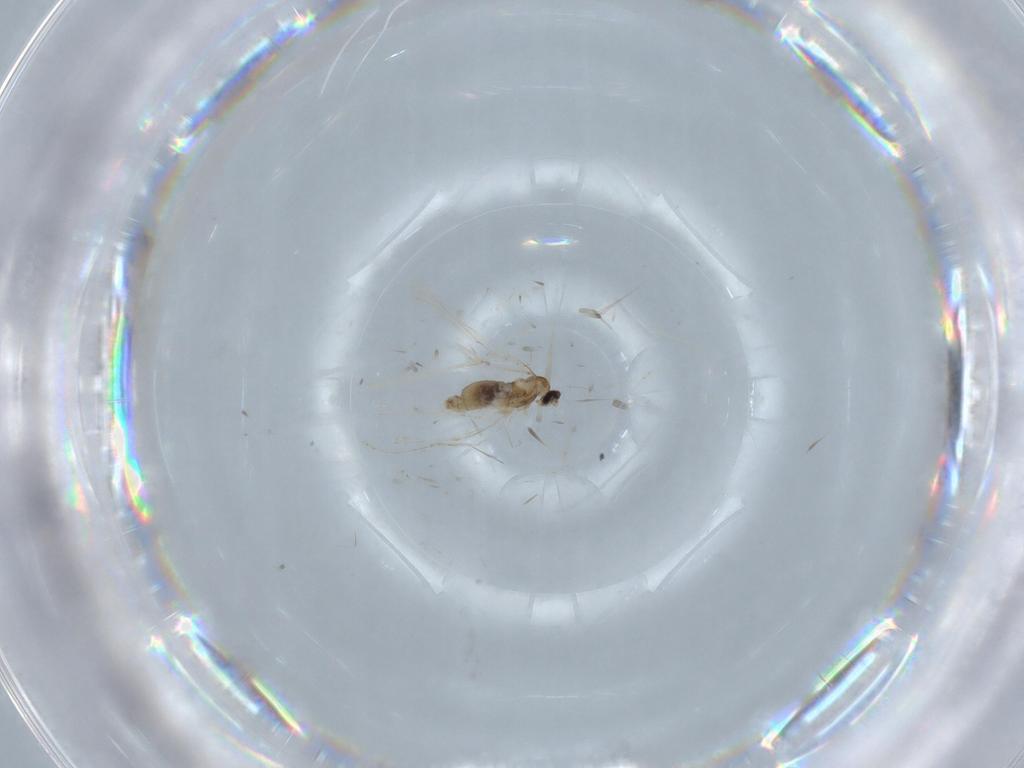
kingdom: Animalia
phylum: Arthropoda
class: Insecta
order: Diptera
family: Cecidomyiidae
